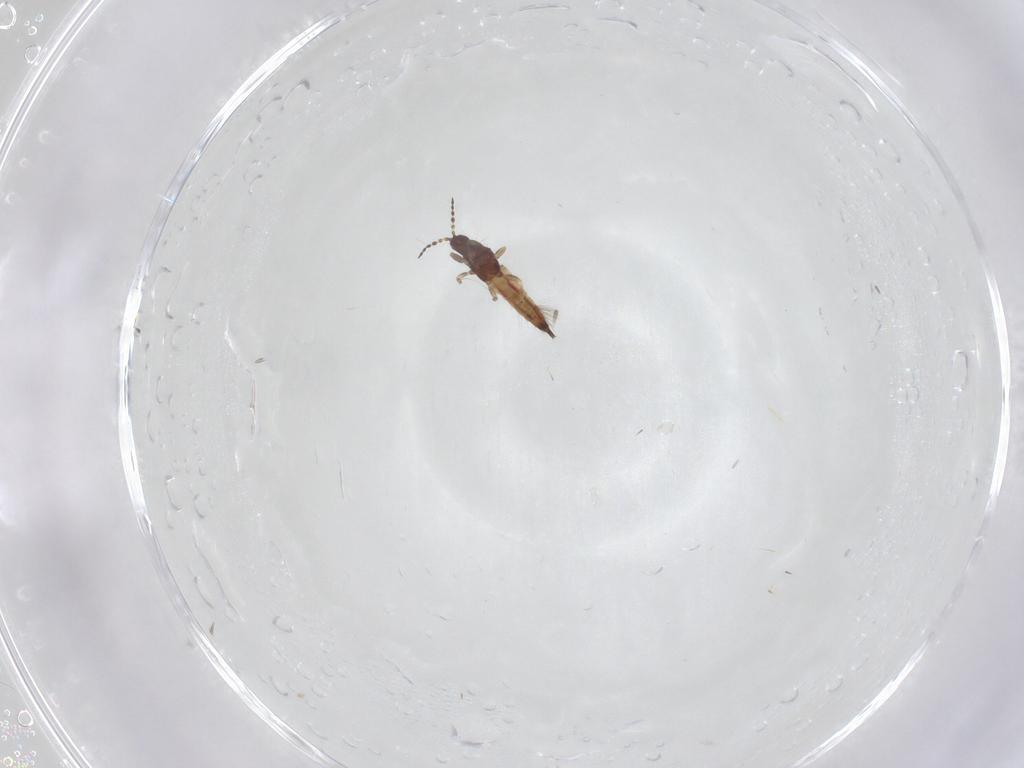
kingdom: Animalia
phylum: Arthropoda
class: Insecta
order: Thysanoptera
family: Phlaeothripidae
